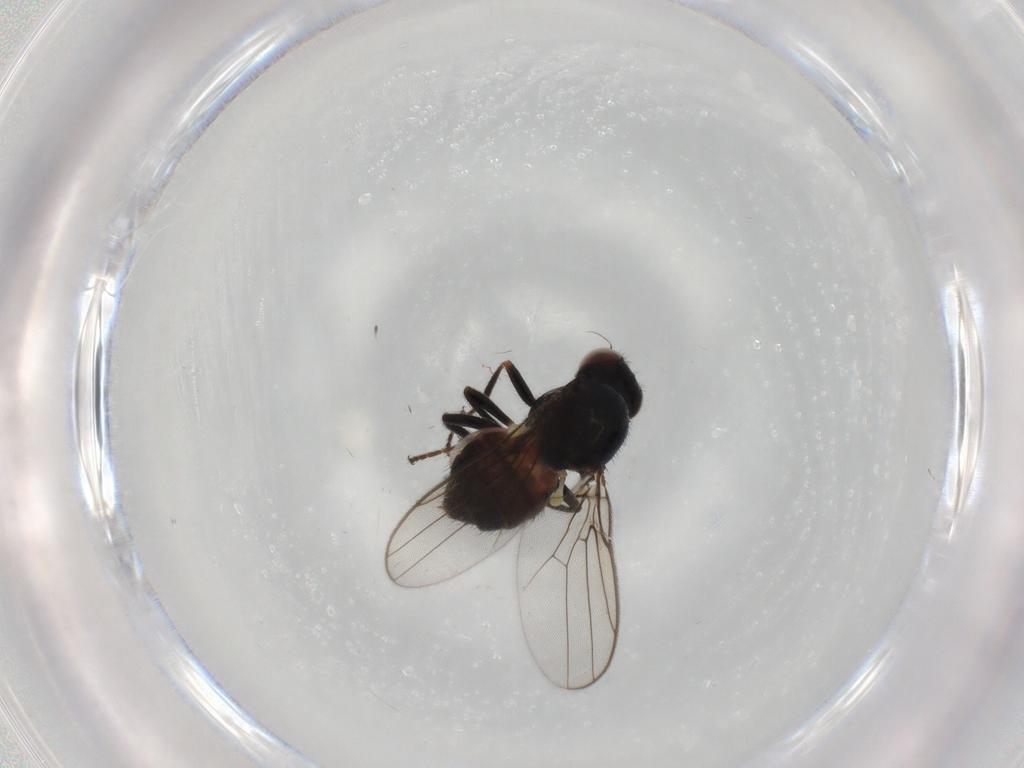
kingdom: Animalia
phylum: Arthropoda
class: Insecta
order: Diptera
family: Chloropidae
